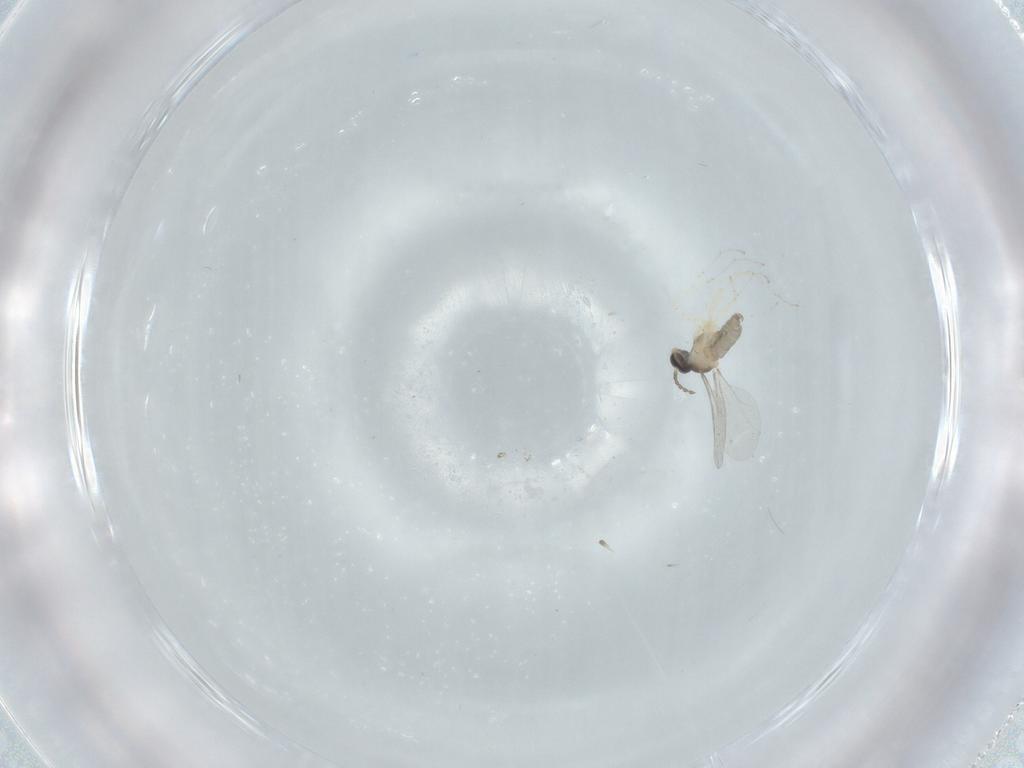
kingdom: Animalia
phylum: Arthropoda
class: Insecta
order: Diptera
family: Cecidomyiidae
